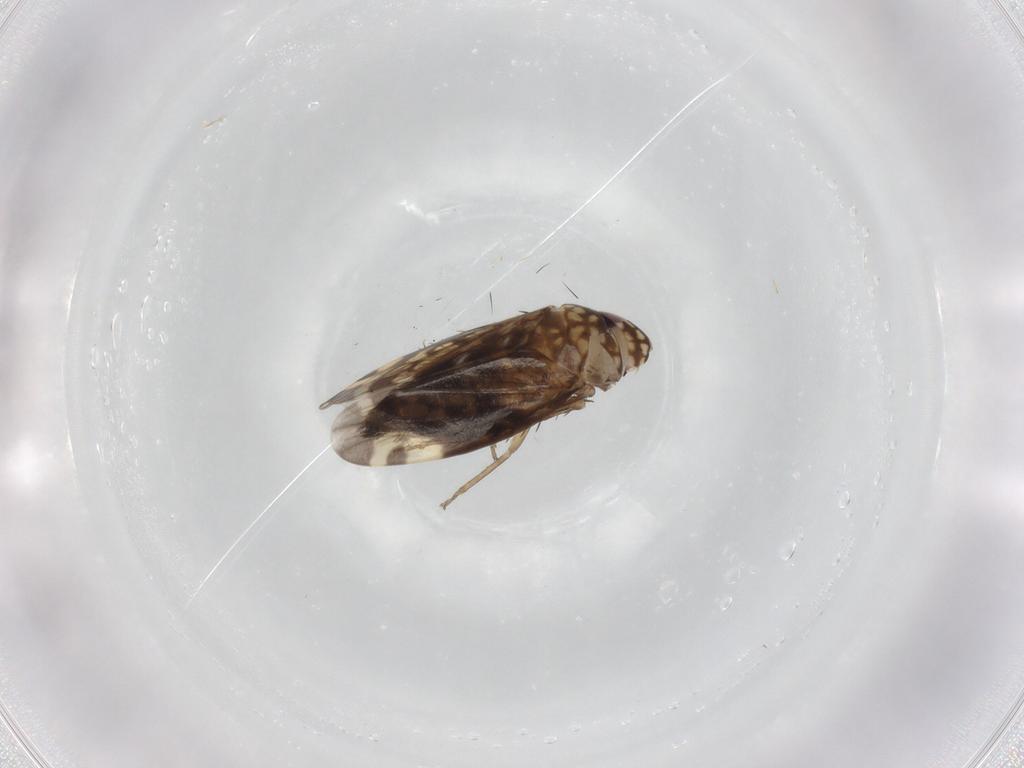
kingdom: Animalia
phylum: Arthropoda
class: Insecta
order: Hemiptera
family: Cicadellidae
